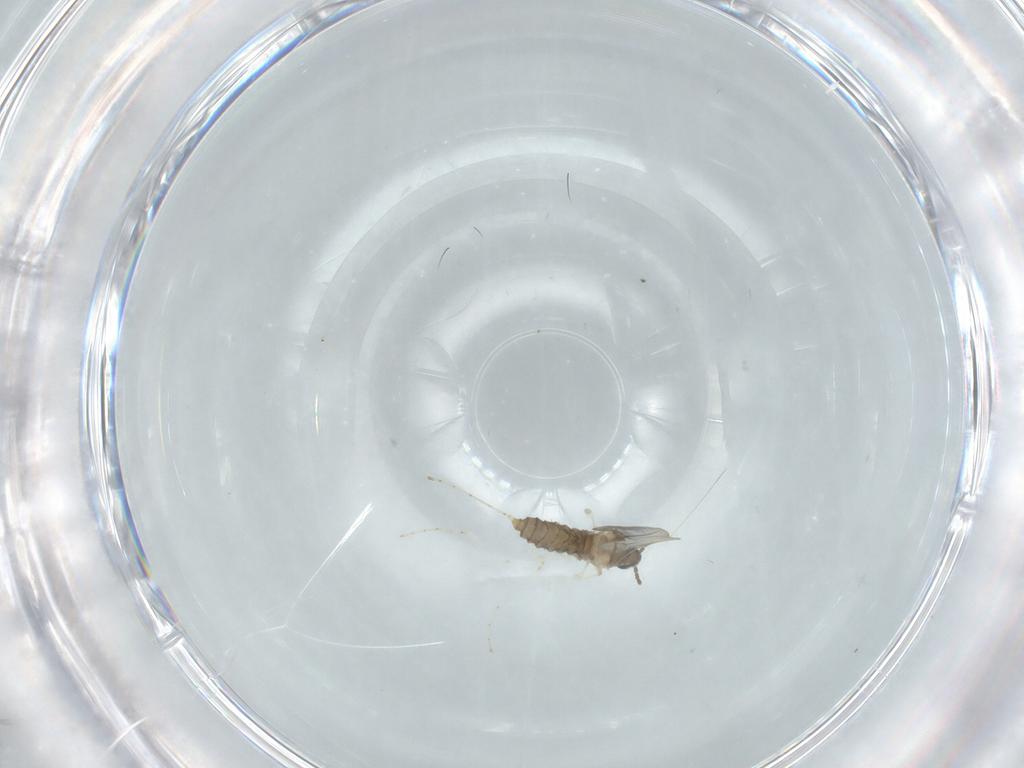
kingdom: Animalia
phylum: Arthropoda
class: Insecta
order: Diptera
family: Cecidomyiidae
